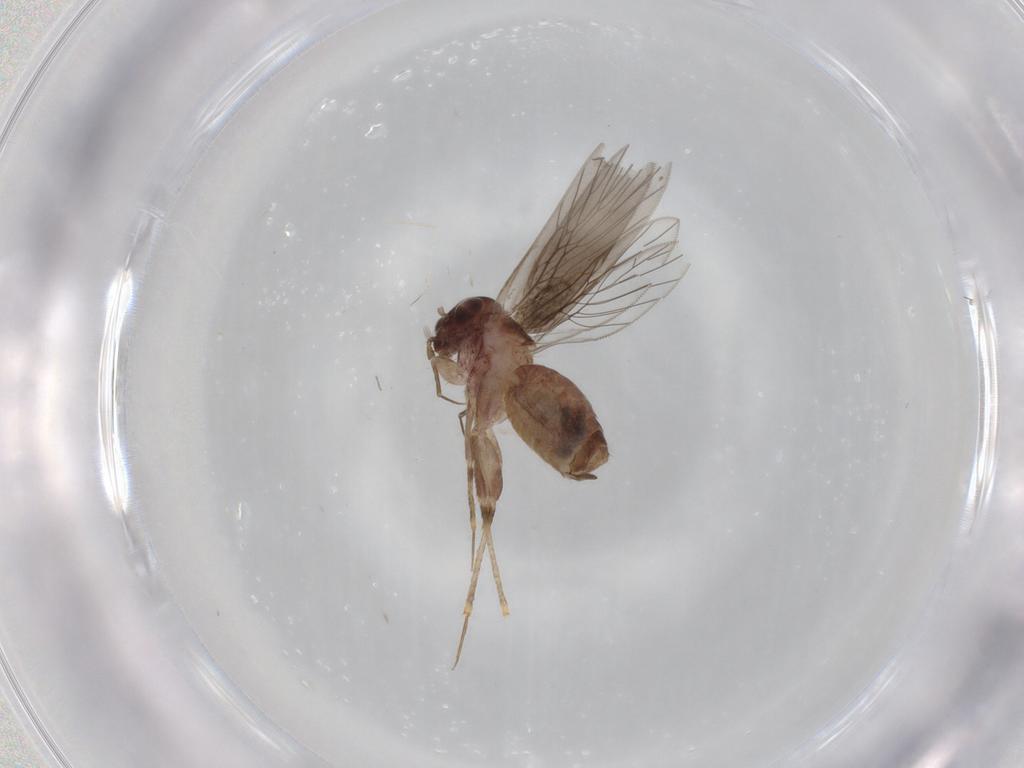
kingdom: Animalia
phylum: Arthropoda
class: Insecta
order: Psocodea
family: Lepidopsocidae
